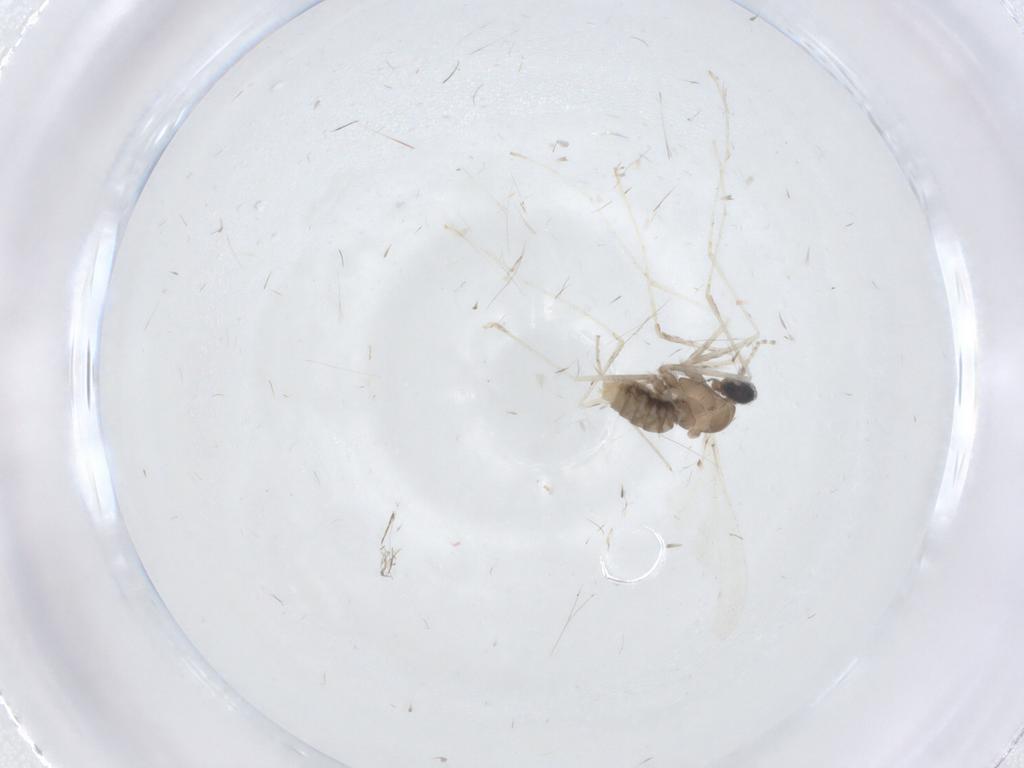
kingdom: Animalia
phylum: Arthropoda
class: Insecta
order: Diptera
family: Cecidomyiidae
